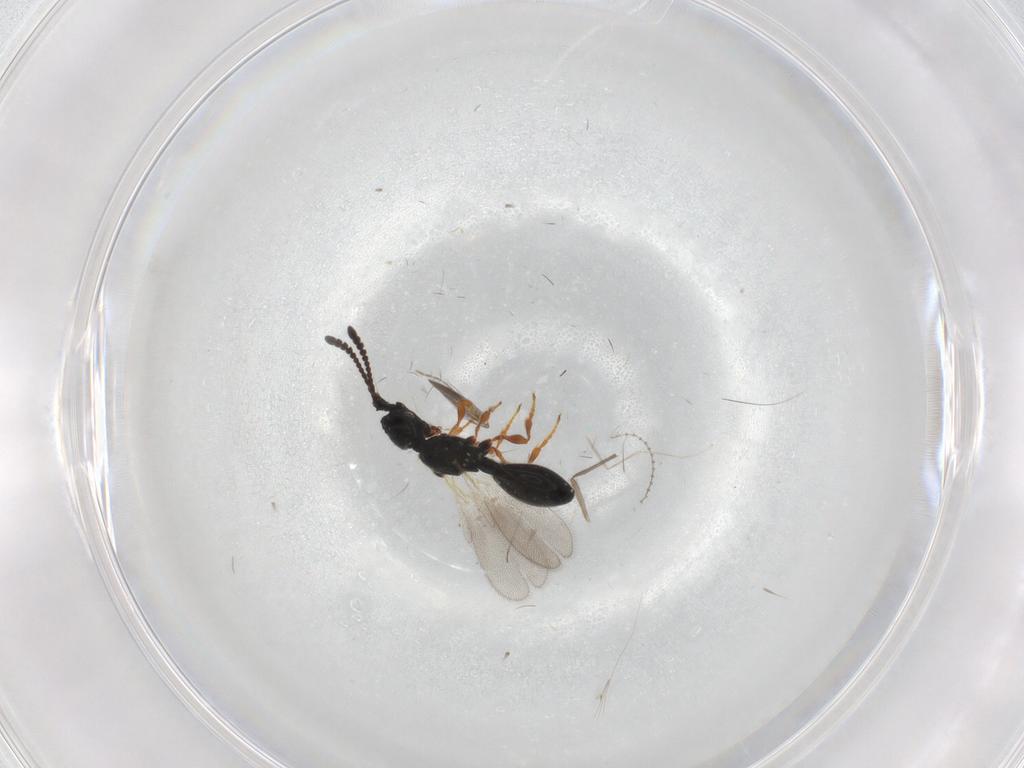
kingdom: Animalia
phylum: Arthropoda
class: Insecta
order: Hymenoptera
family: Diapriidae
